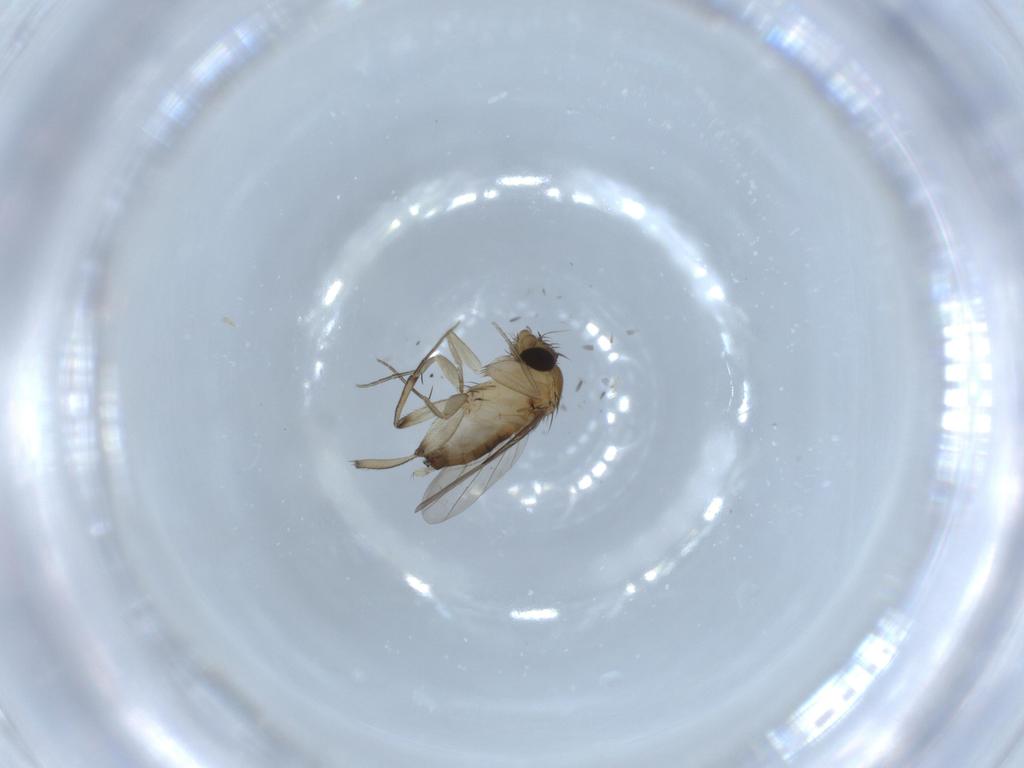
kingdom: Animalia
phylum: Arthropoda
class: Insecta
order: Diptera
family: Phoridae
